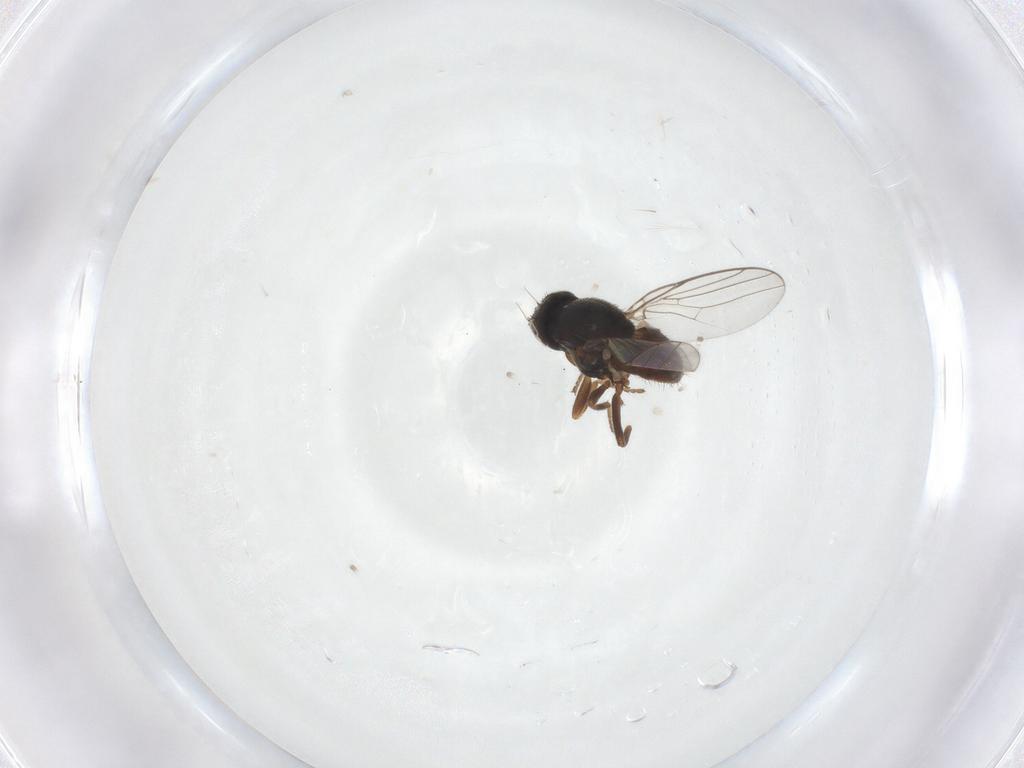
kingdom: Animalia
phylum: Arthropoda
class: Insecta
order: Diptera
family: Chloropidae
